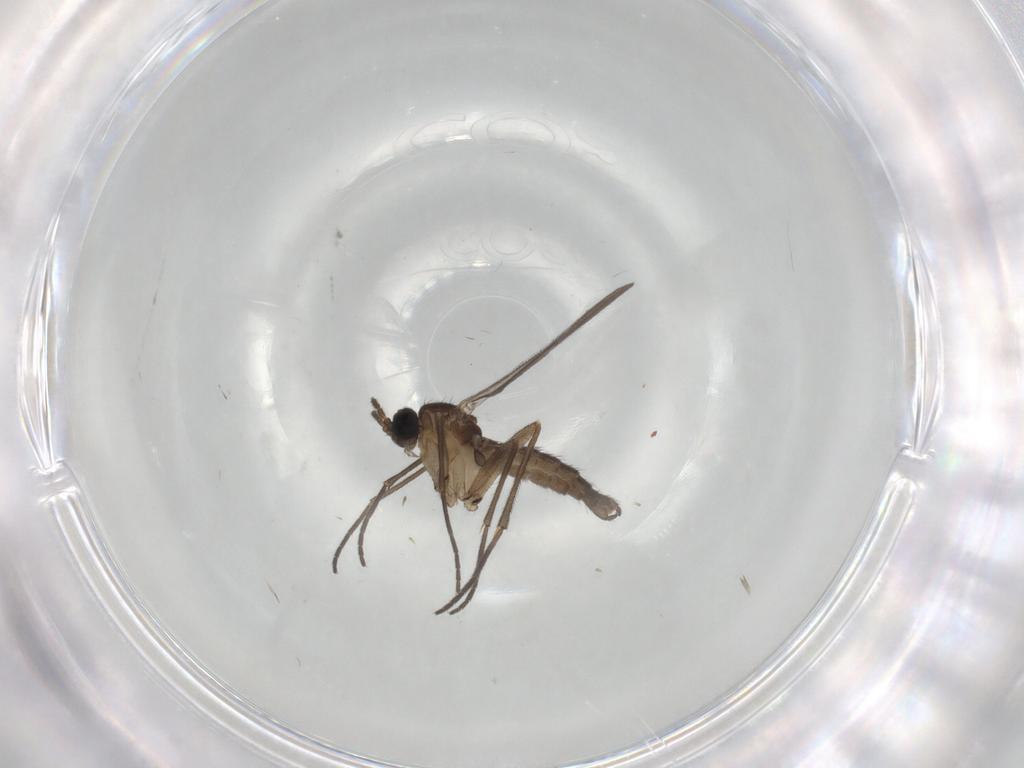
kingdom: Animalia
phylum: Arthropoda
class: Insecta
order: Diptera
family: Sciaridae
